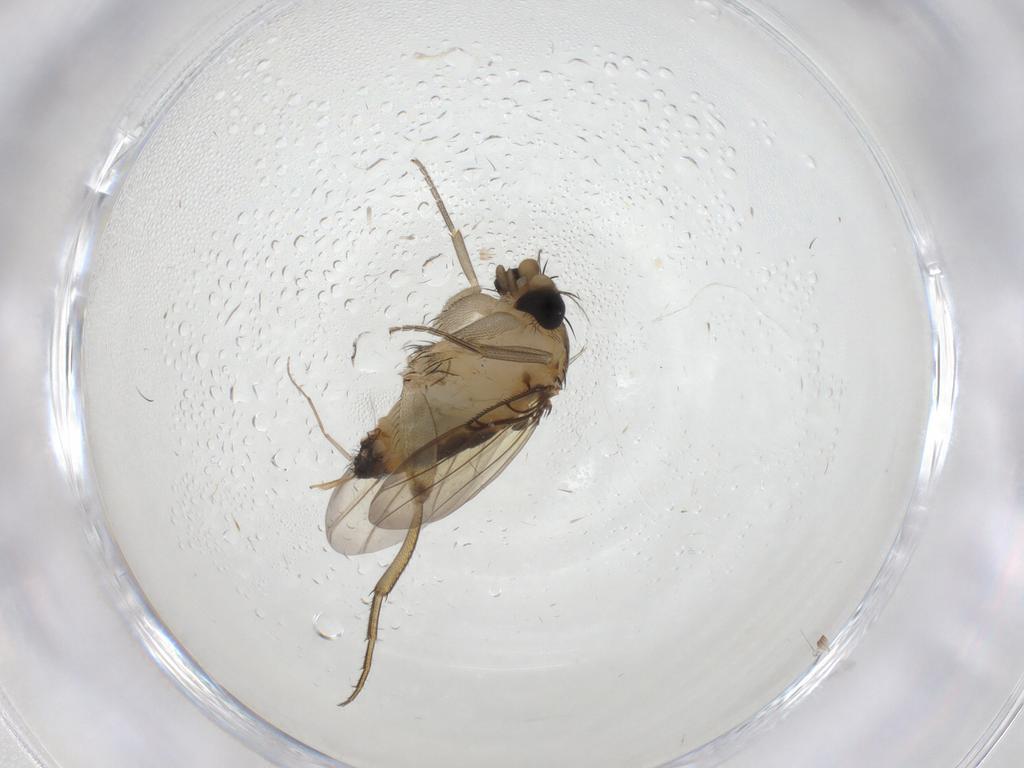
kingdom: Animalia
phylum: Arthropoda
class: Insecta
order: Diptera
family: Phoridae
